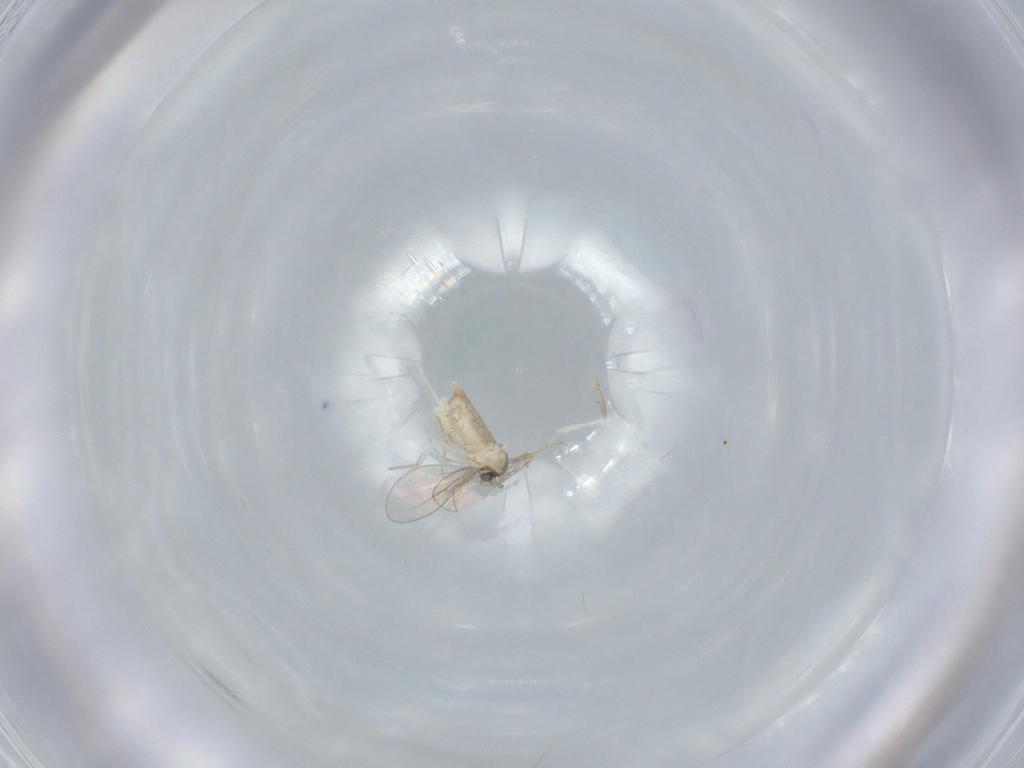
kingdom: Animalia
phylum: Arthropoda
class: Insecta
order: Diptera
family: Cecidomyiidae
